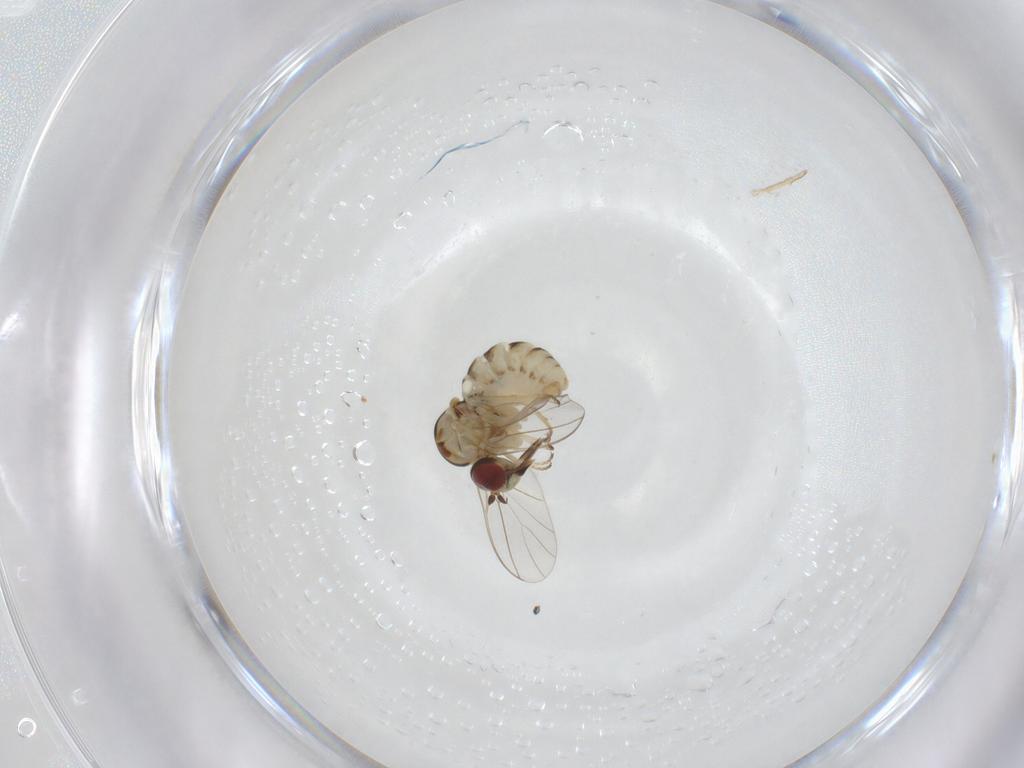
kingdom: Animalia
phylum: Arthropoda
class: Insecta
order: Diptera
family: Bombyliidae
